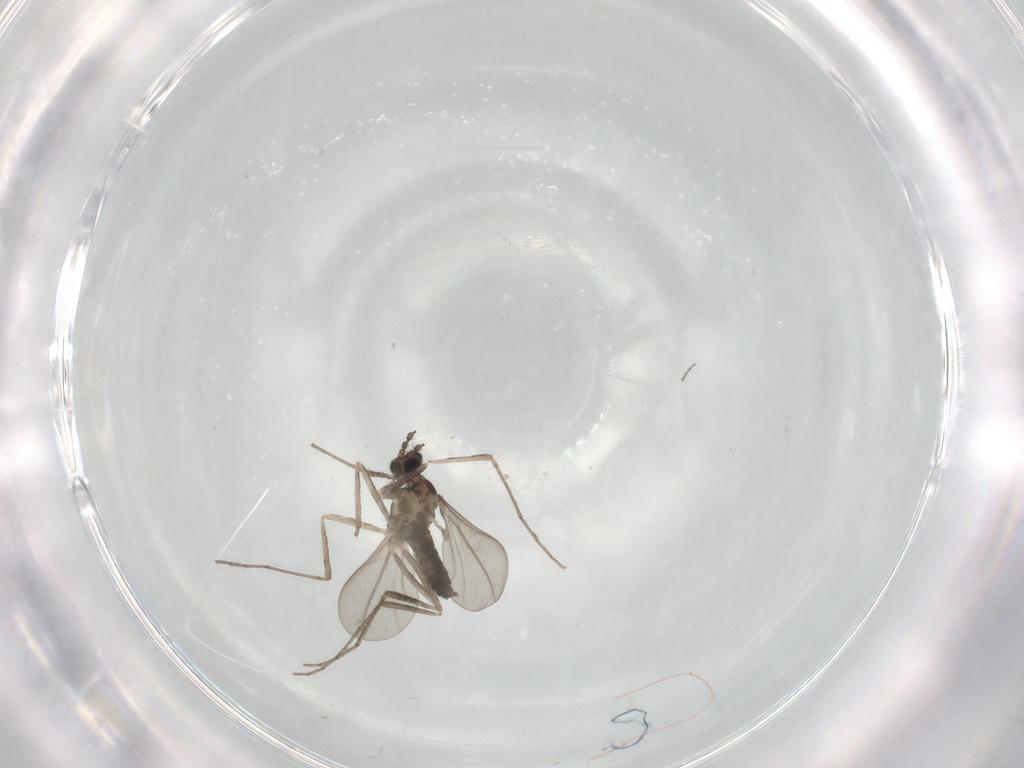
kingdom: Animalia
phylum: Arthropoda
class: Insecta
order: Diptera
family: Cecidomyiidae
